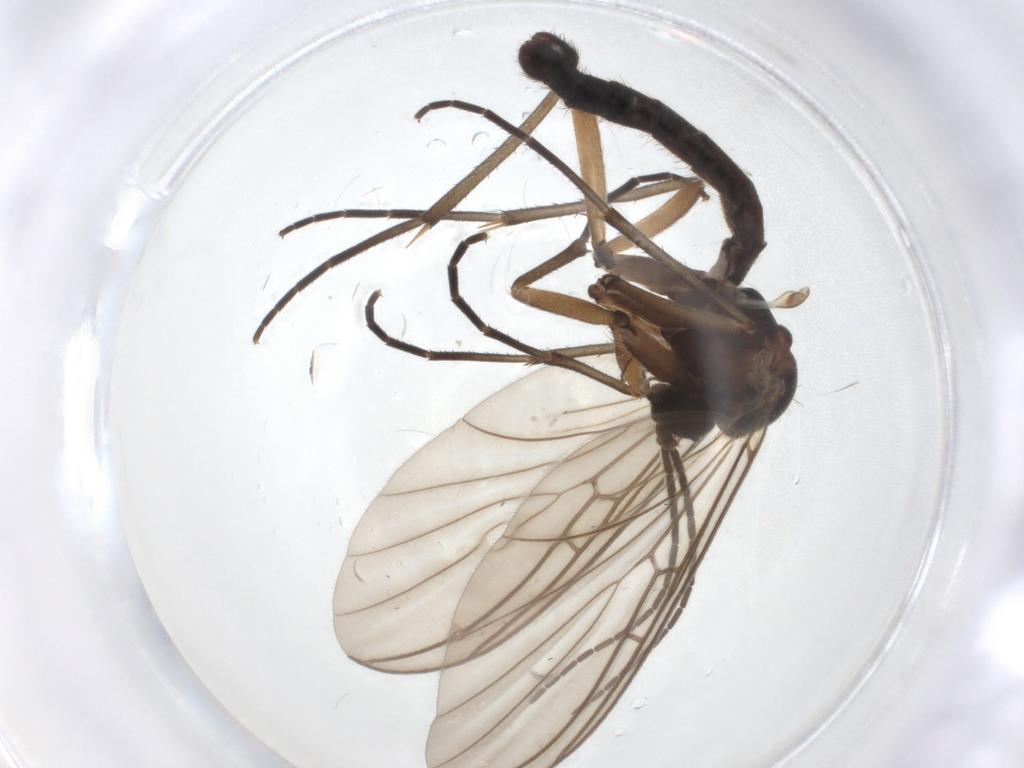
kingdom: Animalia
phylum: Arthropoda
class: Insecta
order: Diptera
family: Mycetophilidae
